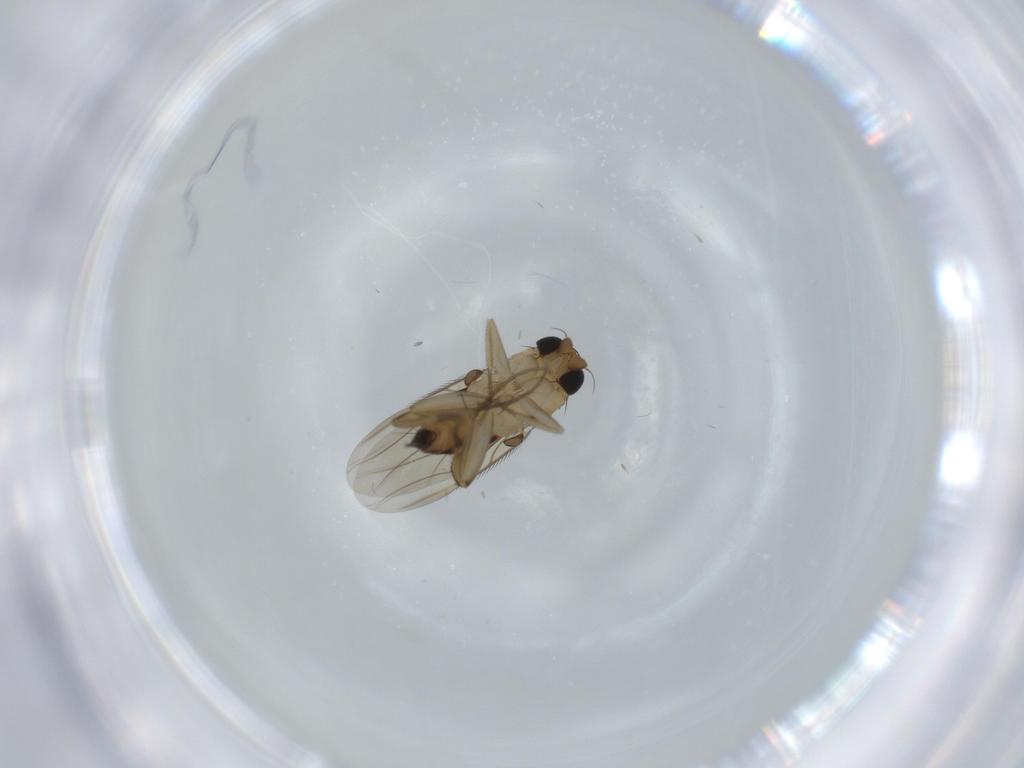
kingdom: Animalia
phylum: Arthropoda
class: Insecta
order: Diptera
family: Phoridae
